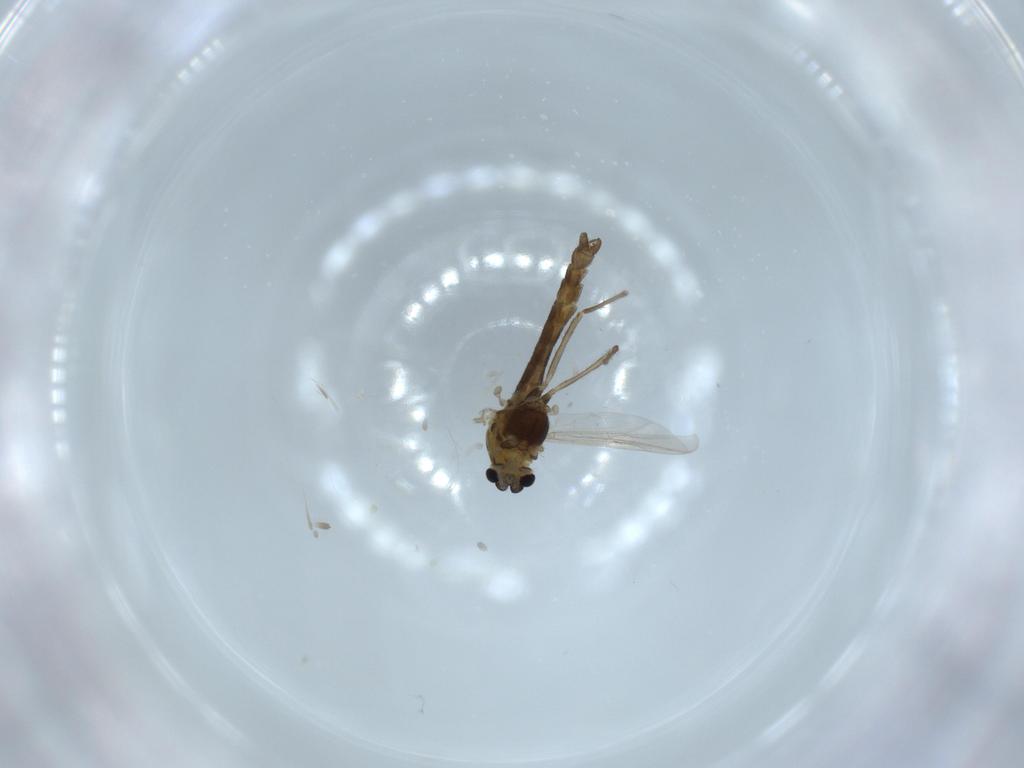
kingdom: Animalia
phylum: Arthropoda
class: Insecta
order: Diptera
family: Chironomidae
